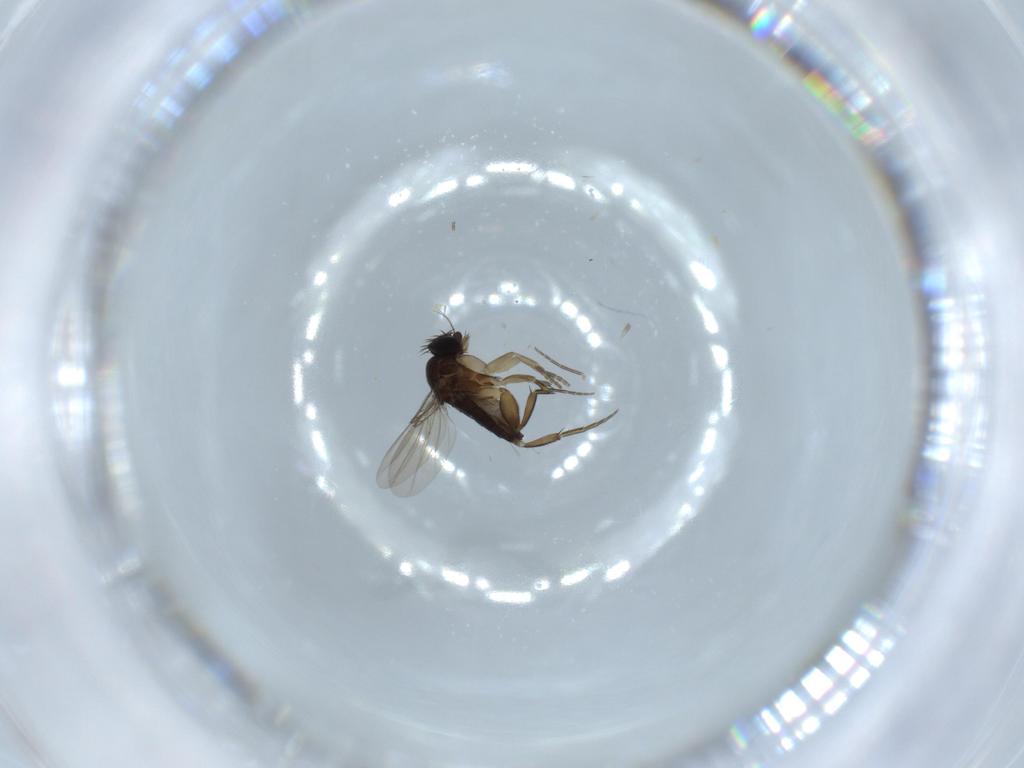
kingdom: Animalia
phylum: Arthropoda
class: Insecta
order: Diptera
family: Phoridae
